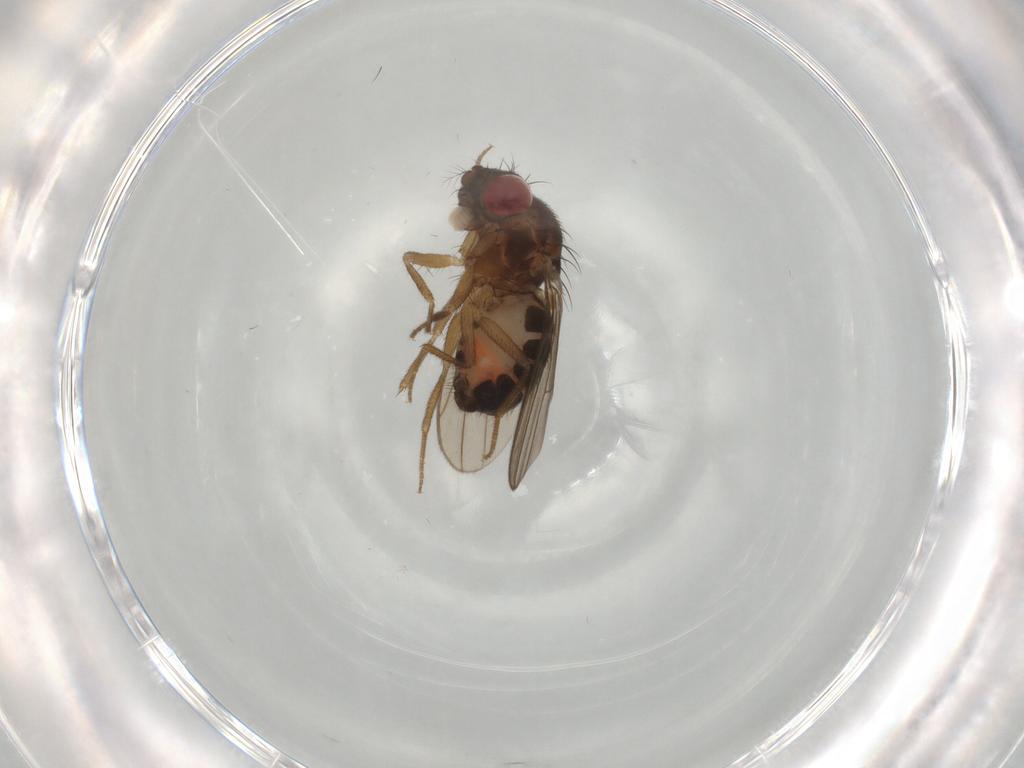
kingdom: Animalia
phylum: Arthropoda
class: Insecta
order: Diptera
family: Drosophilidae
